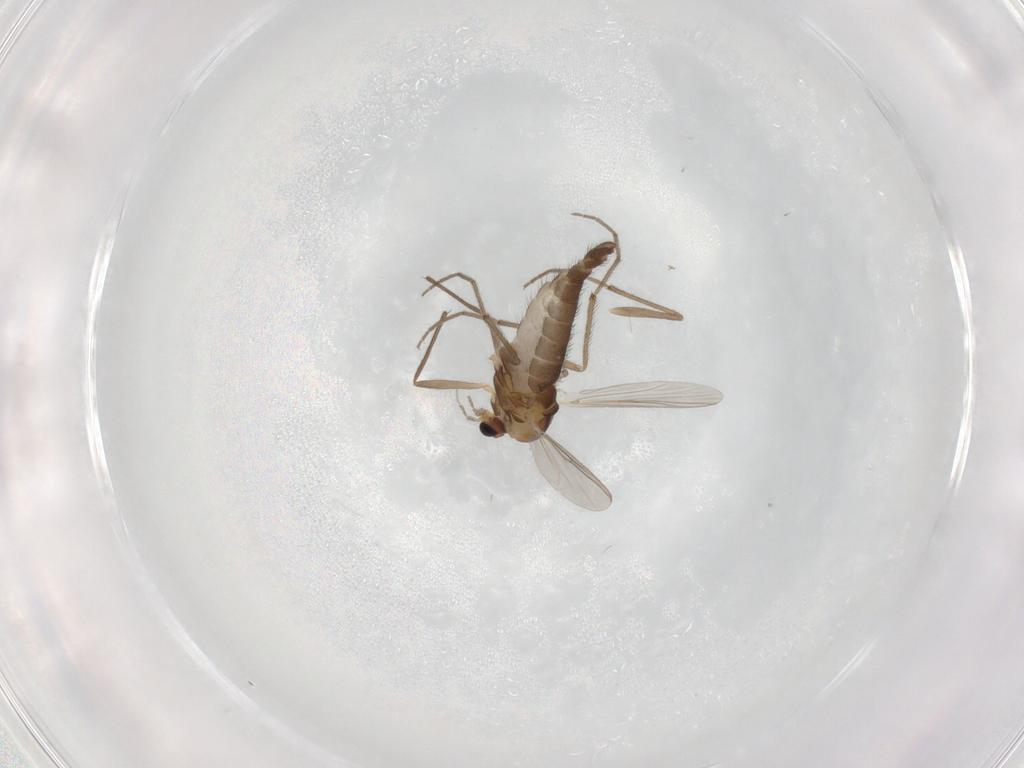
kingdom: Animalia
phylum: Arthropoda
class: Insecta
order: Diptera
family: Chironomidae
